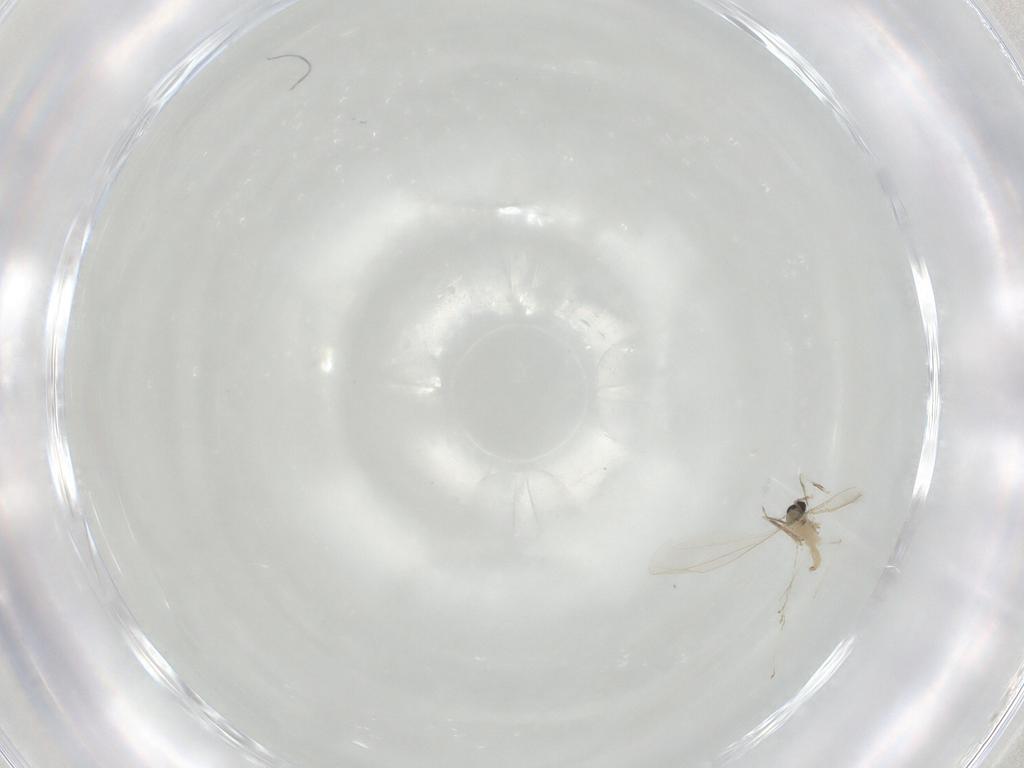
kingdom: Animalia
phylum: Arthropoda
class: Insecta
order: Diptera
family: Cecidomyiidae
